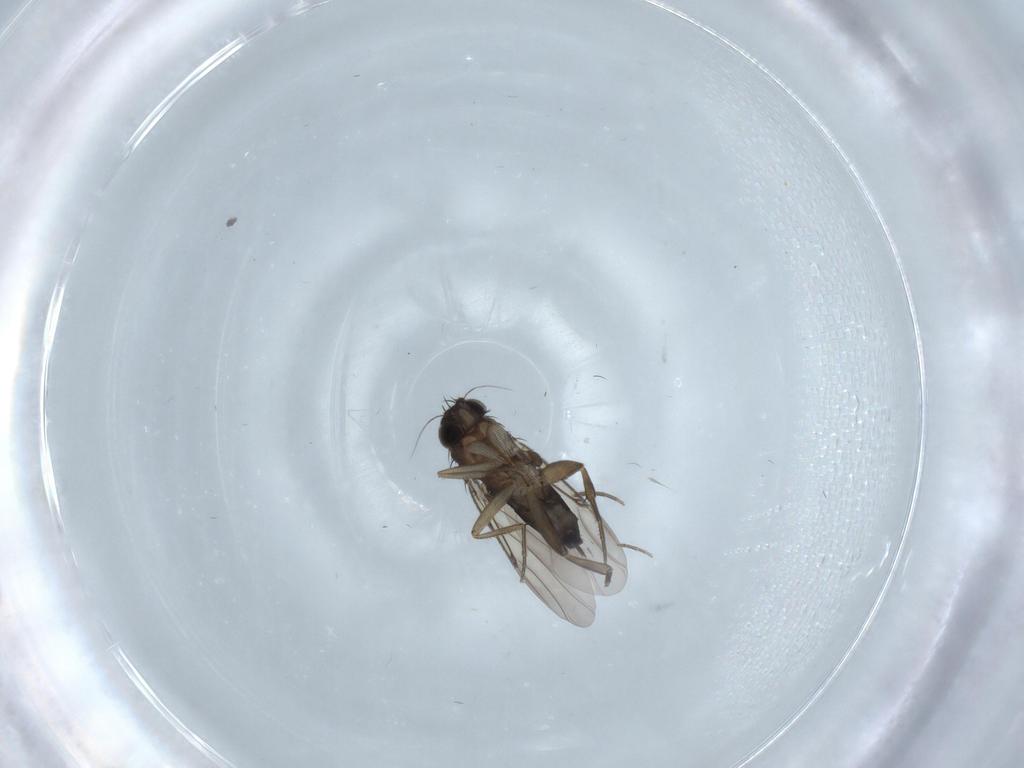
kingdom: Animalia
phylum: Arthropoda
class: Insecta
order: Diptera
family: Phoridae
